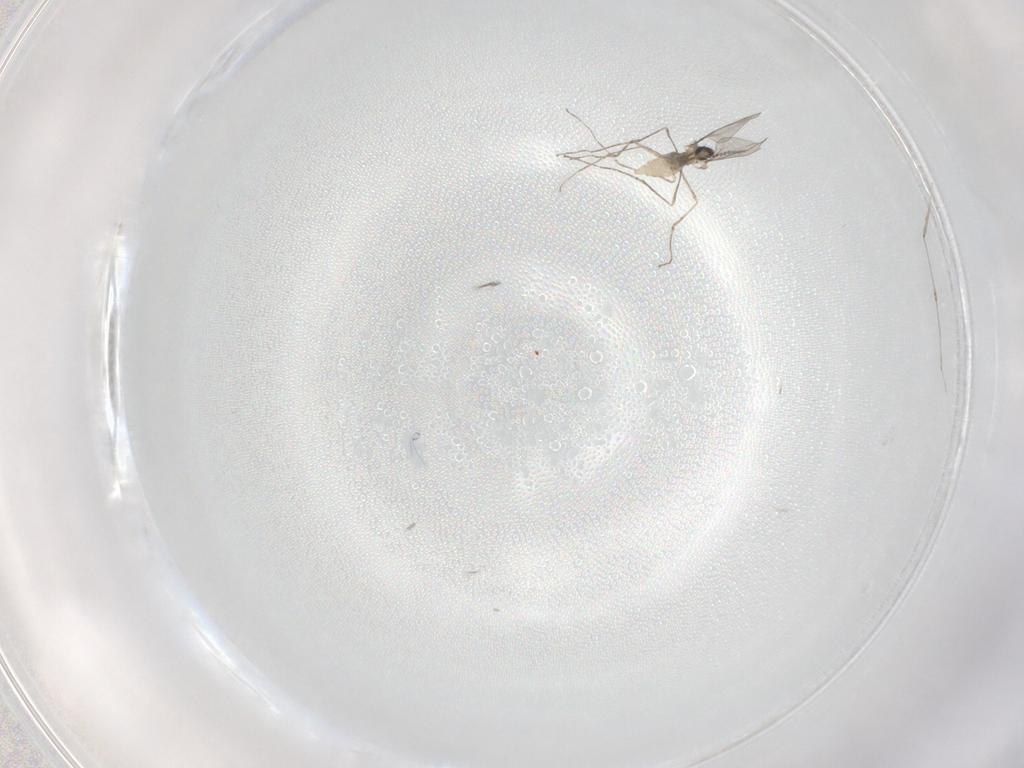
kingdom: Animalia
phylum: Arthropoda
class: Insecta
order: Diptera
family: Cecidomyiidae
